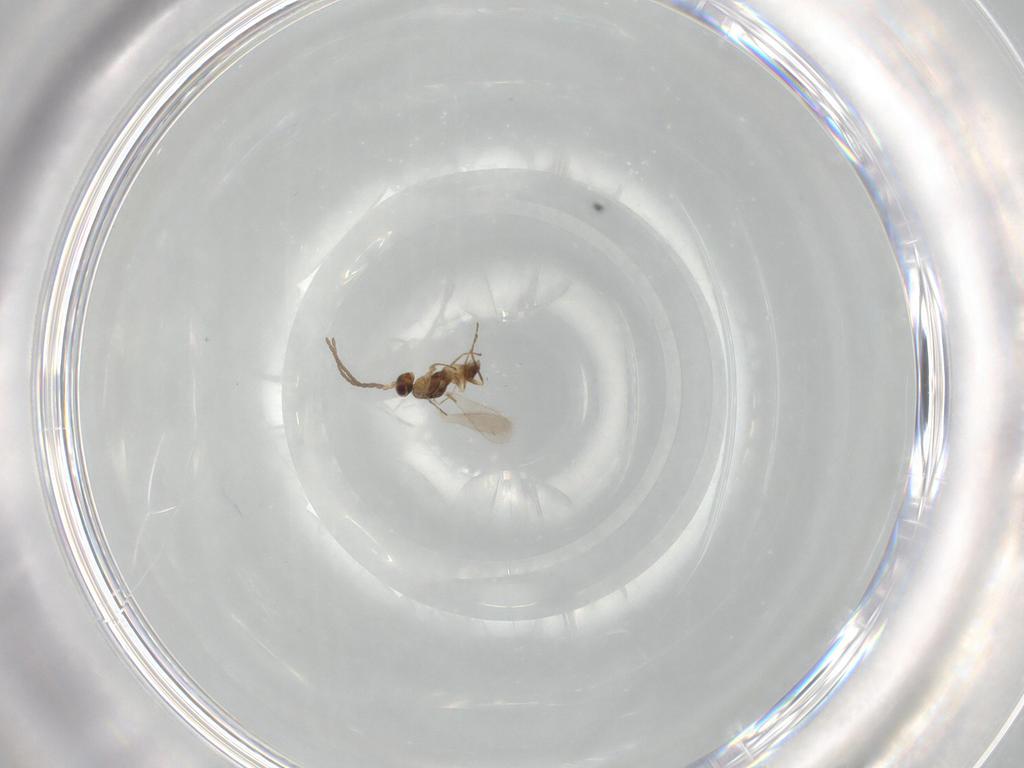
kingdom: Animalia
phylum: Arthropoda
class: Insecta
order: Hymenoptera
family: Mymaridae
